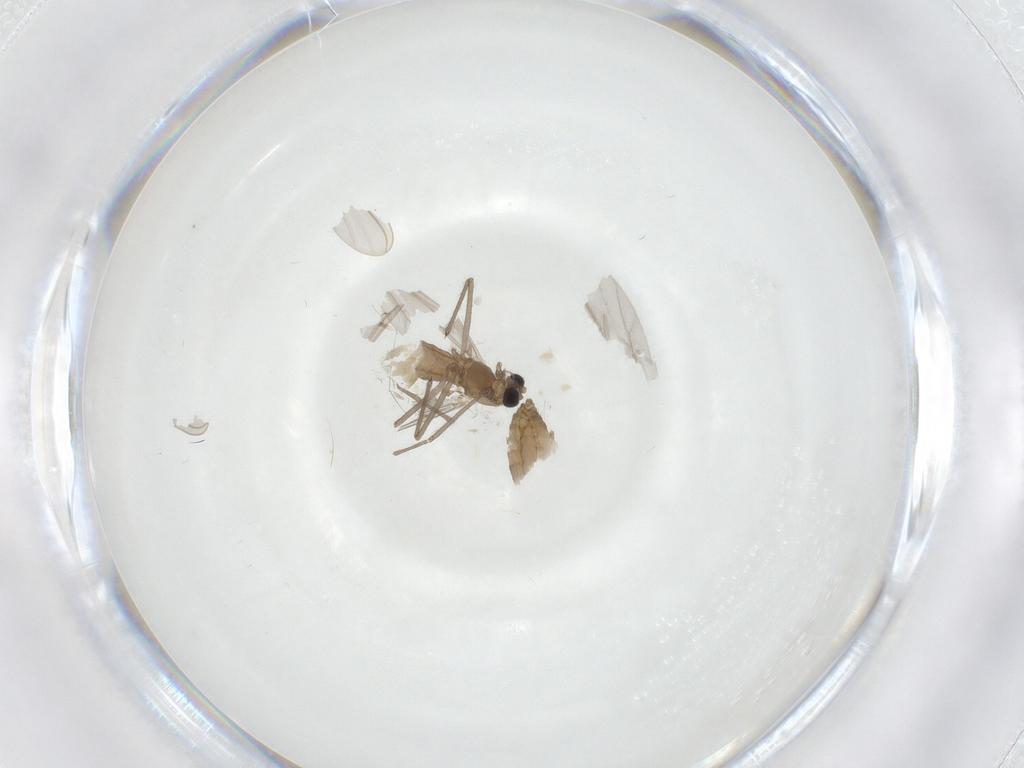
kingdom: Animalia
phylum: Arthropoda
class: Insecta
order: Diptera
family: Chironomidae
